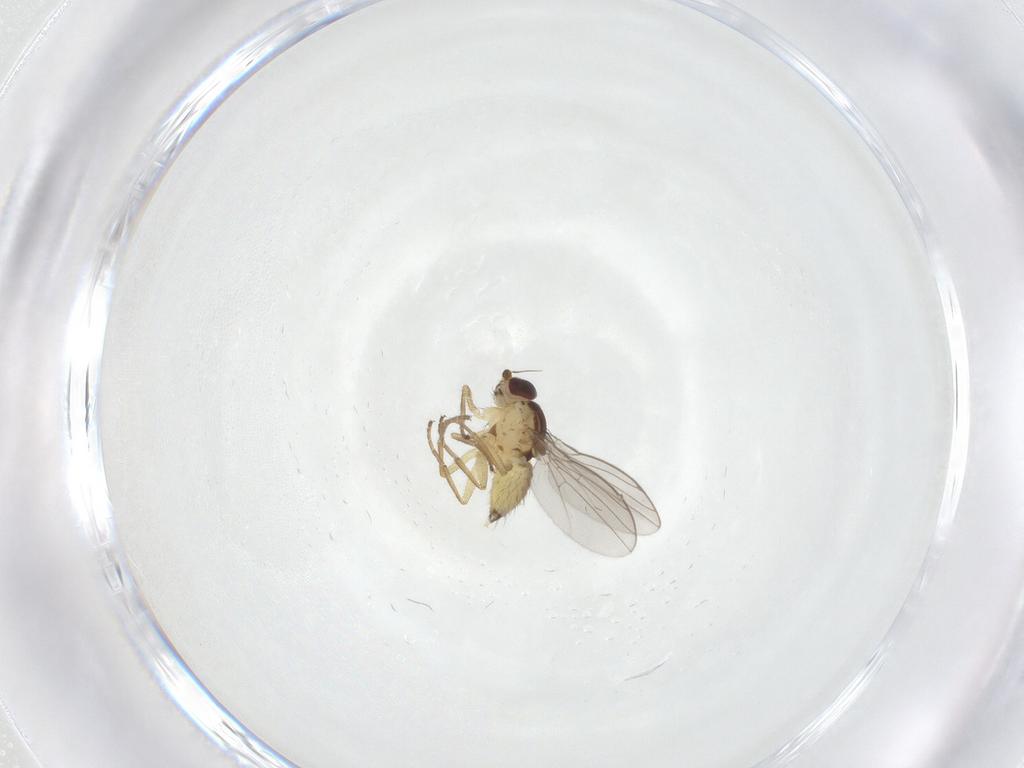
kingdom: Animalia
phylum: Arthropoda
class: Insecta
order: Diptera
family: Agromyzidae
